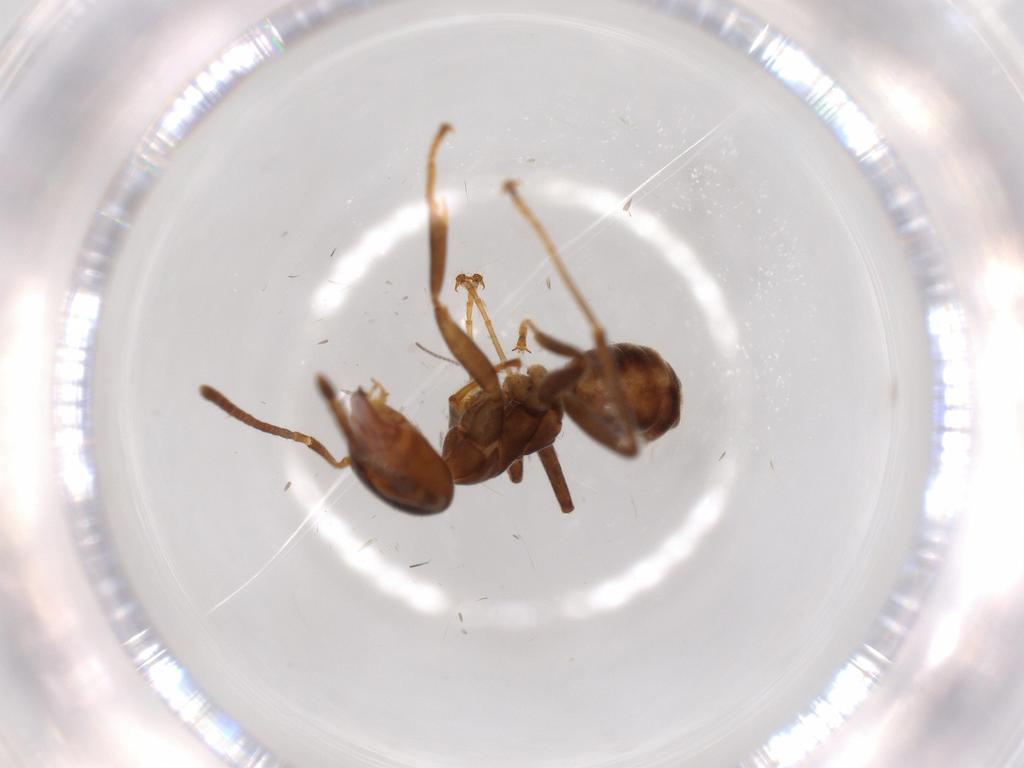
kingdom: Animalia
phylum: Arthropoda
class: Insecta
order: Hymenoptera
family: Formicidae
